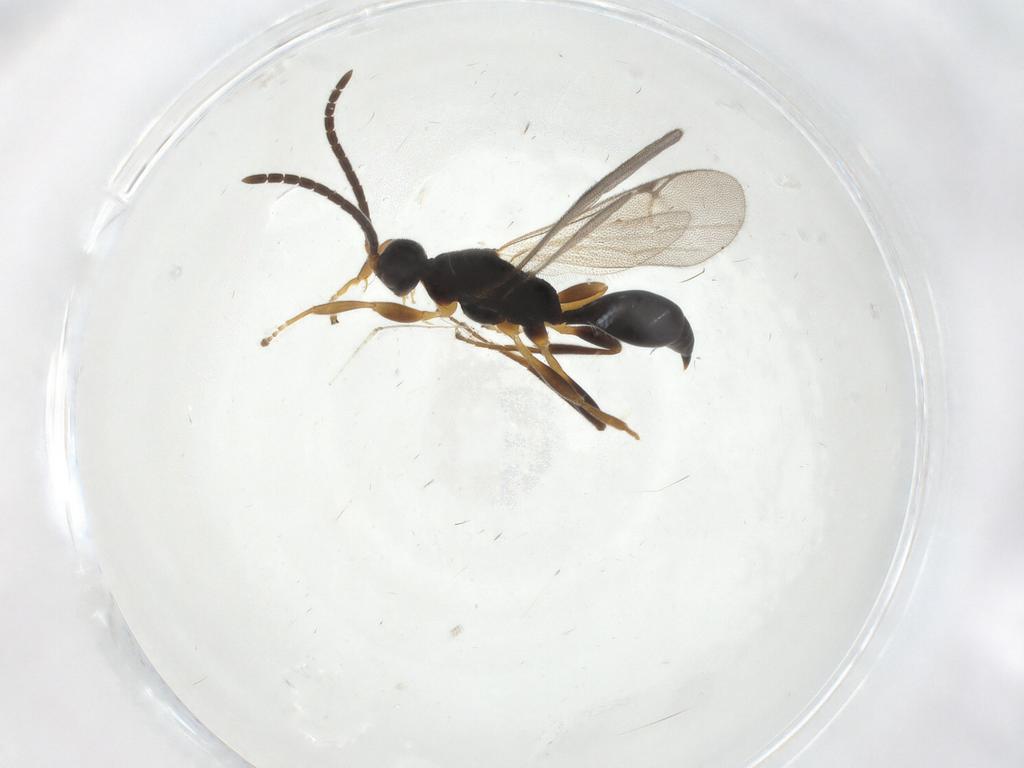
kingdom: Animalia
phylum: Arthropoda
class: Insecta
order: Hymenoptera
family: Proctotrupidae
